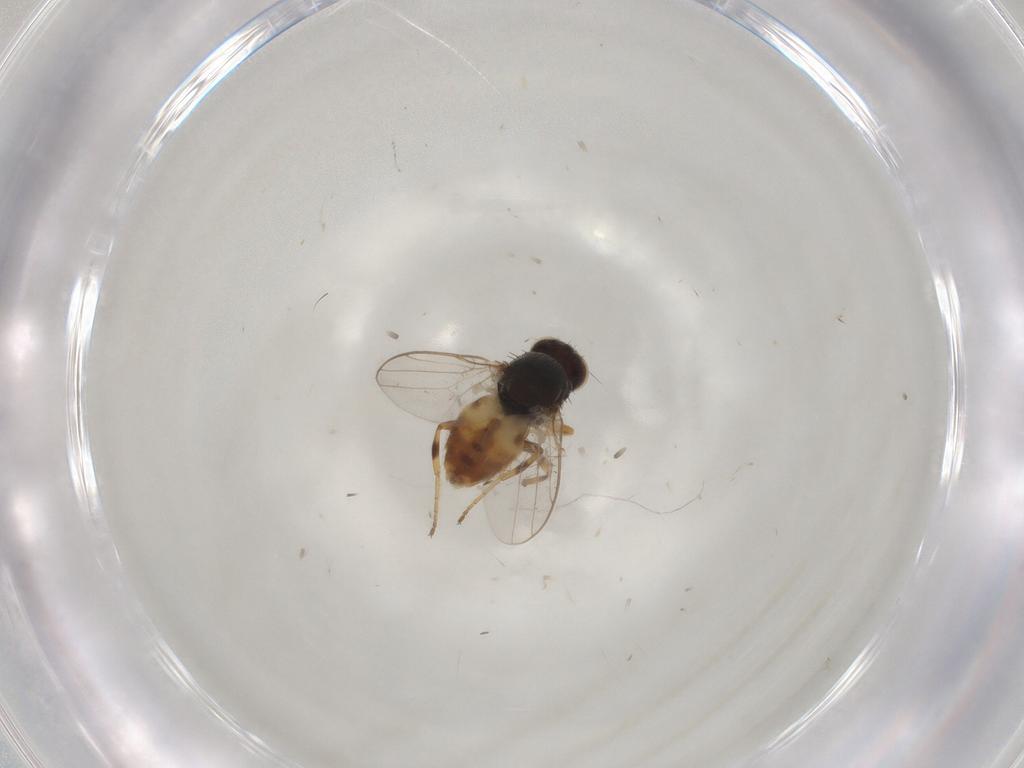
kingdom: Animalia
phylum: Arthropoda
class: Insecta
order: Diptera
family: Chloropidae
